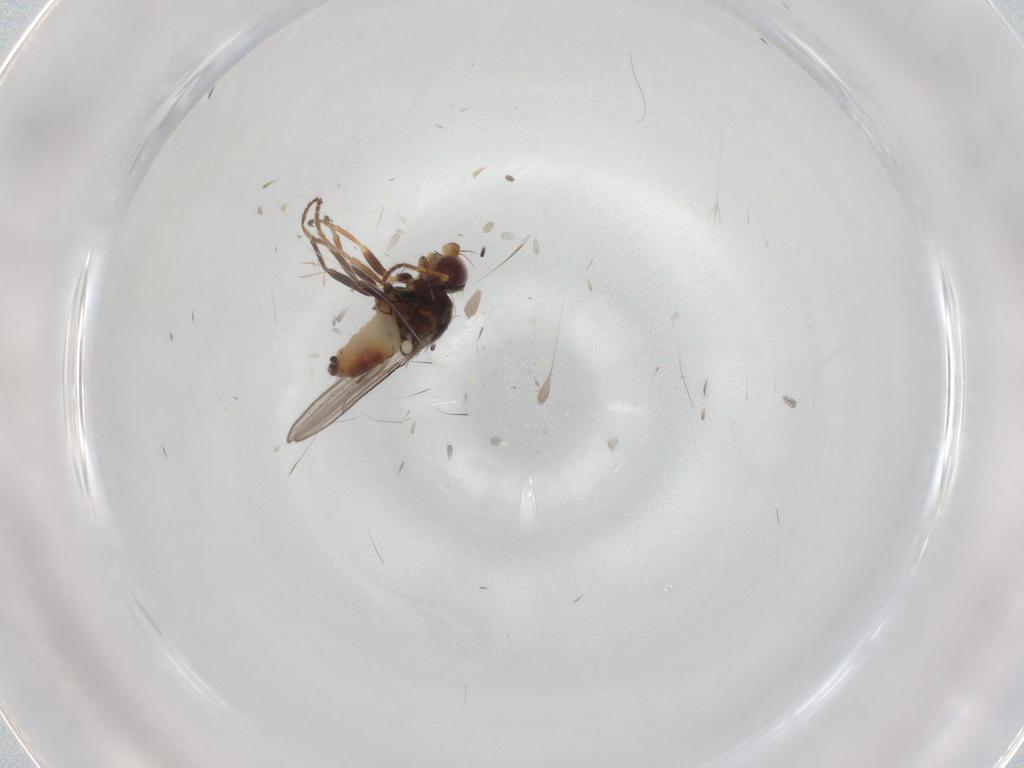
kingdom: Animalia
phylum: Arthropoda
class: Insecta
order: Diptera
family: Chloropidae
